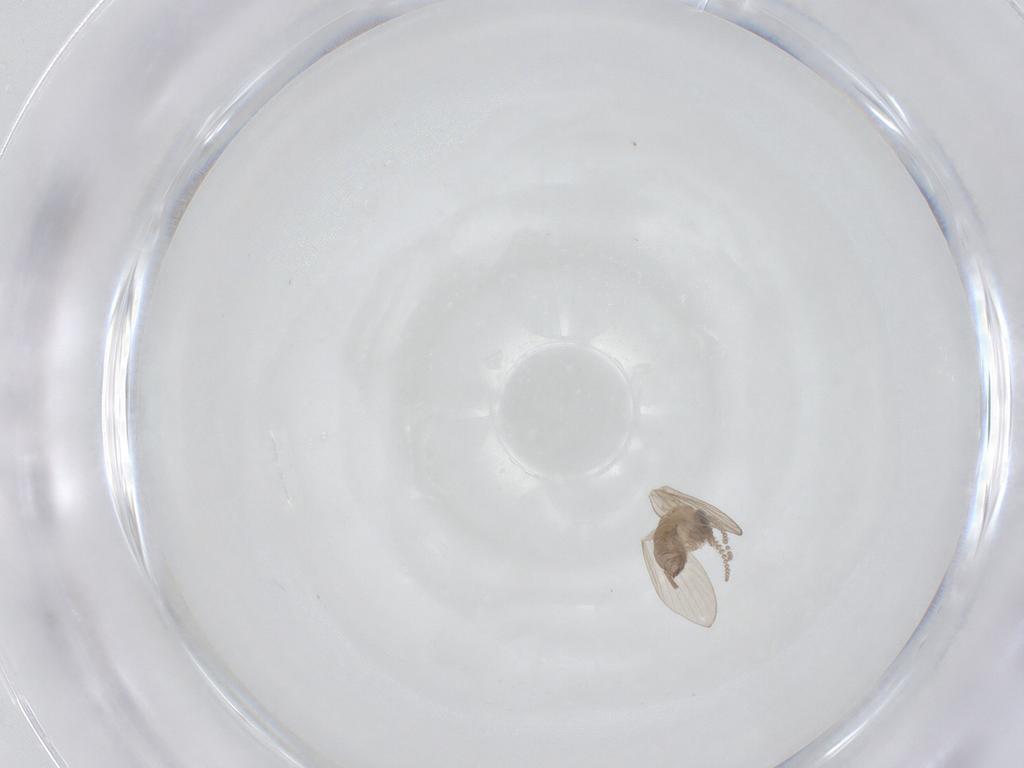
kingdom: Animalia
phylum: Arthropoda
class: Insecta
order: Diptera
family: Psychodidae
